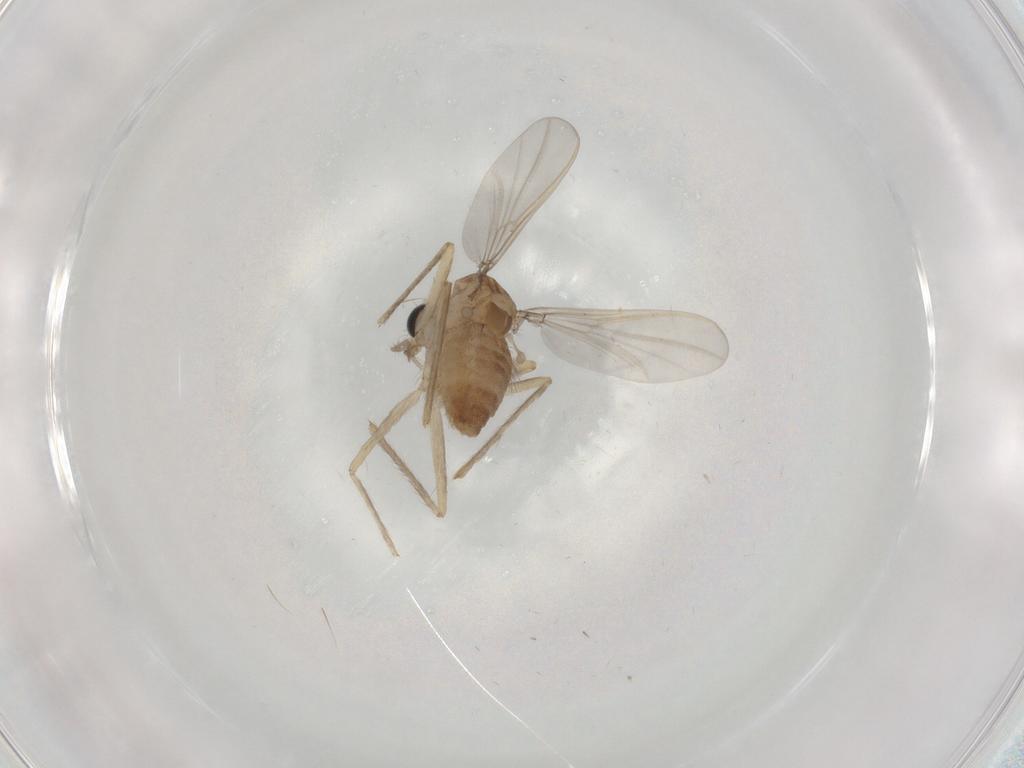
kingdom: Animalia
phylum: Arthropoda
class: Insecta
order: Diptera
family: Chironomidae
